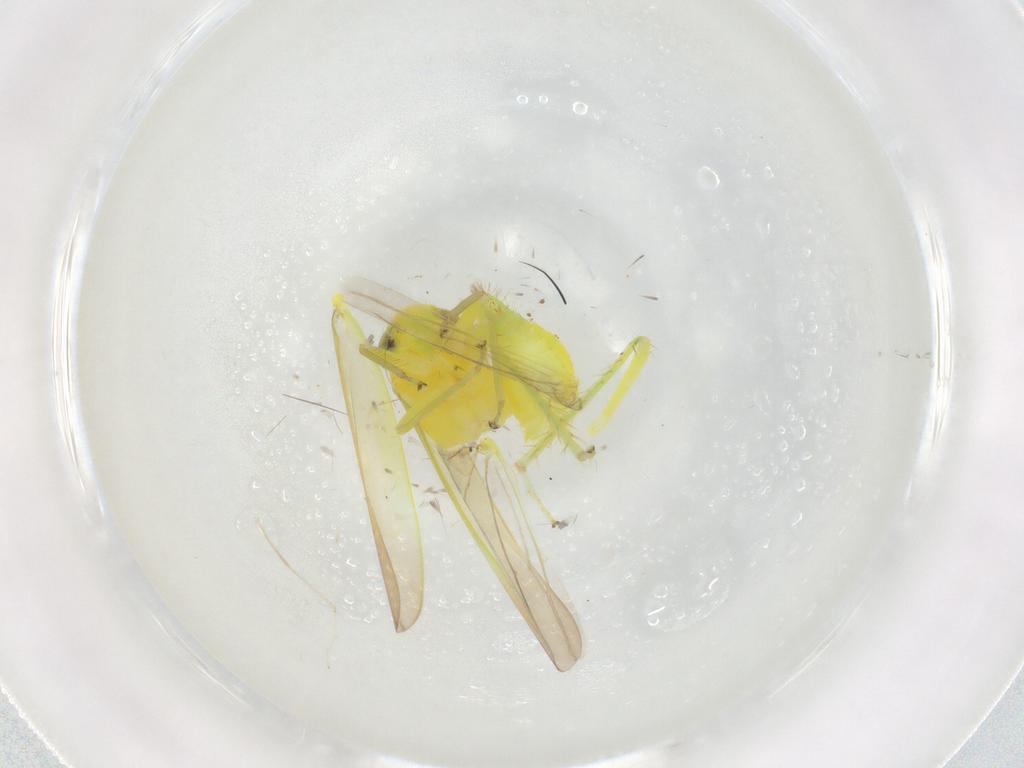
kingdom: Animalia
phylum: Arthropoda
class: Insecta
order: Hemiptera
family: Cicadellidae
